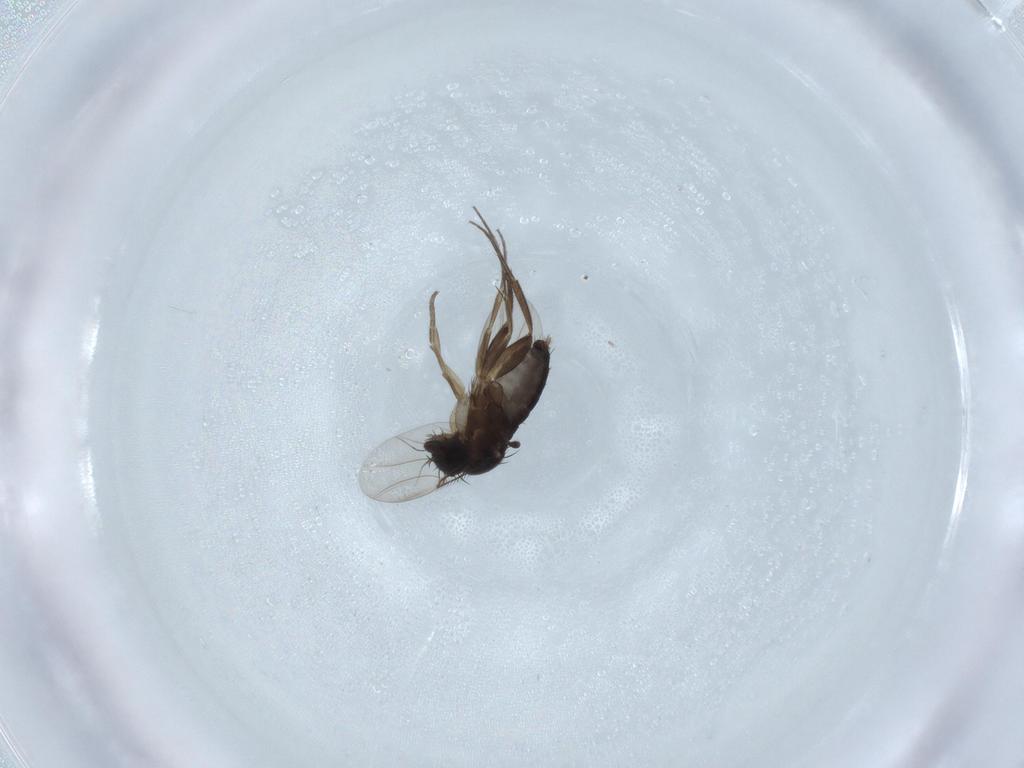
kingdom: Animalia
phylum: Arthropoda
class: Insecta
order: Diptera
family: Phoridae
